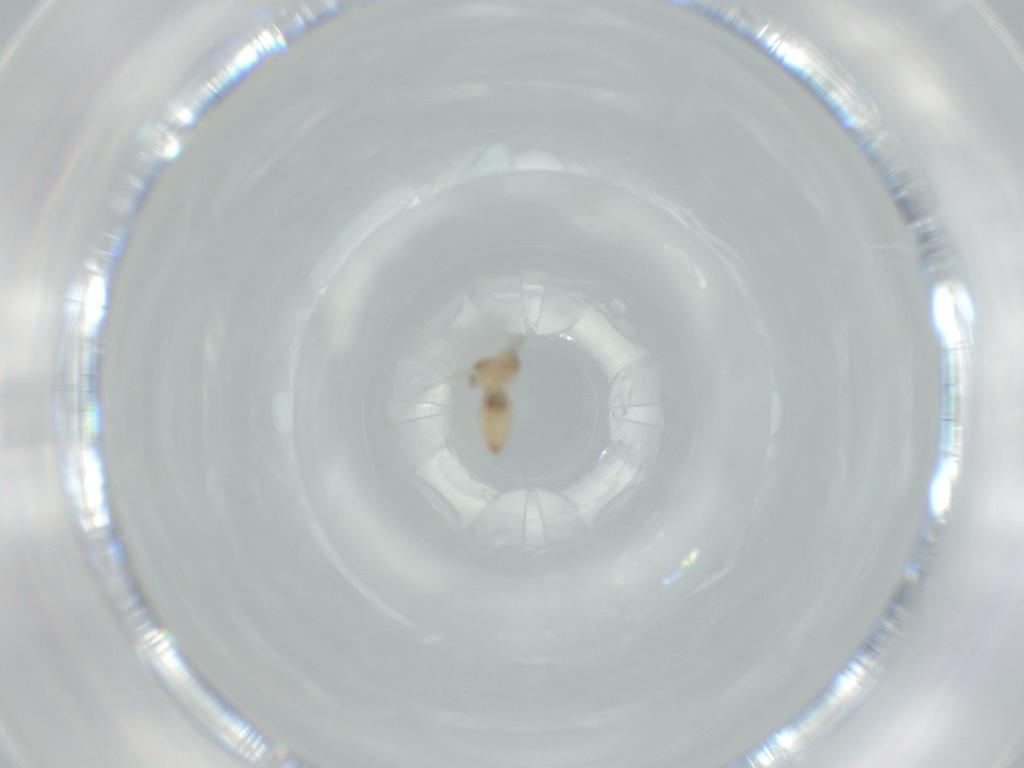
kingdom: Animalia
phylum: Arthropoda
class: Insecta
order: Diptera
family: Cecidomyiidae
